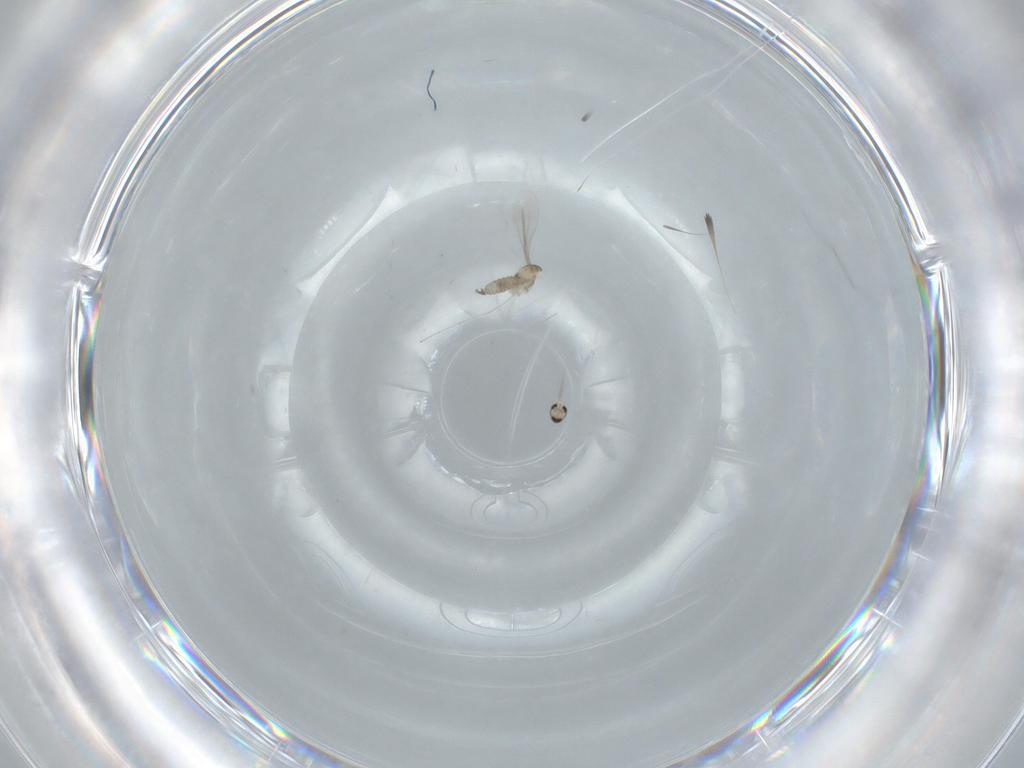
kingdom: Animalia
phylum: Arthropoda
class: Insecta
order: Diptera
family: Cecidomyiidae
